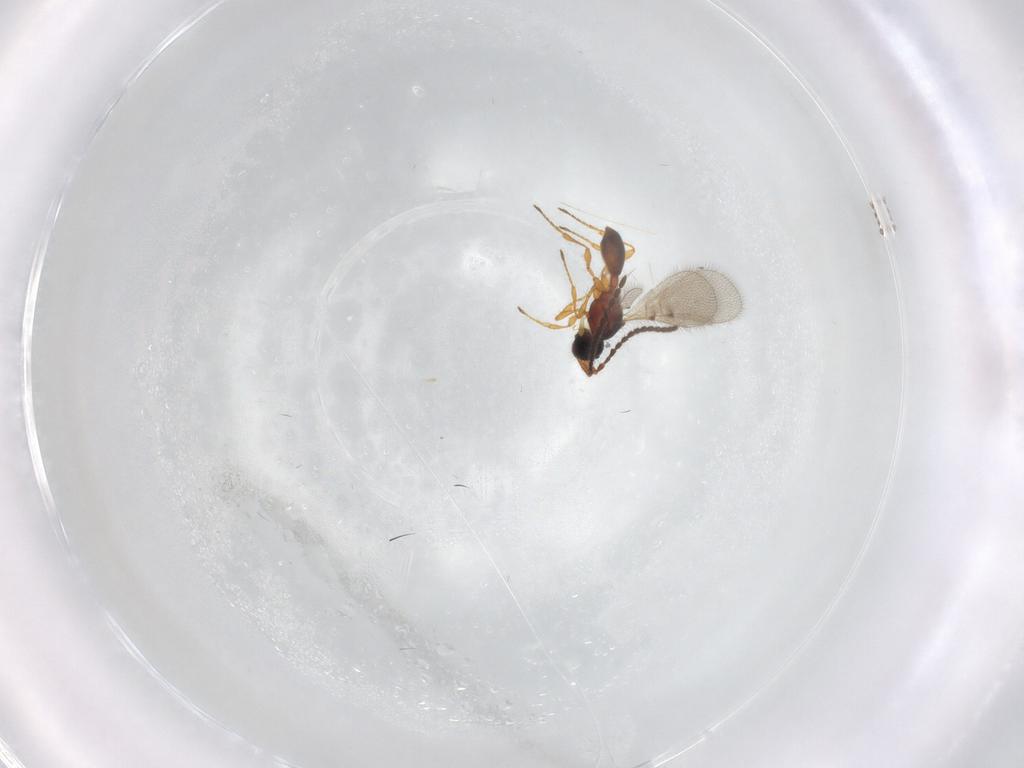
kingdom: Animalia
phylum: Arthropoda
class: Insecta
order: Hymenoptera
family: Diapriidae
